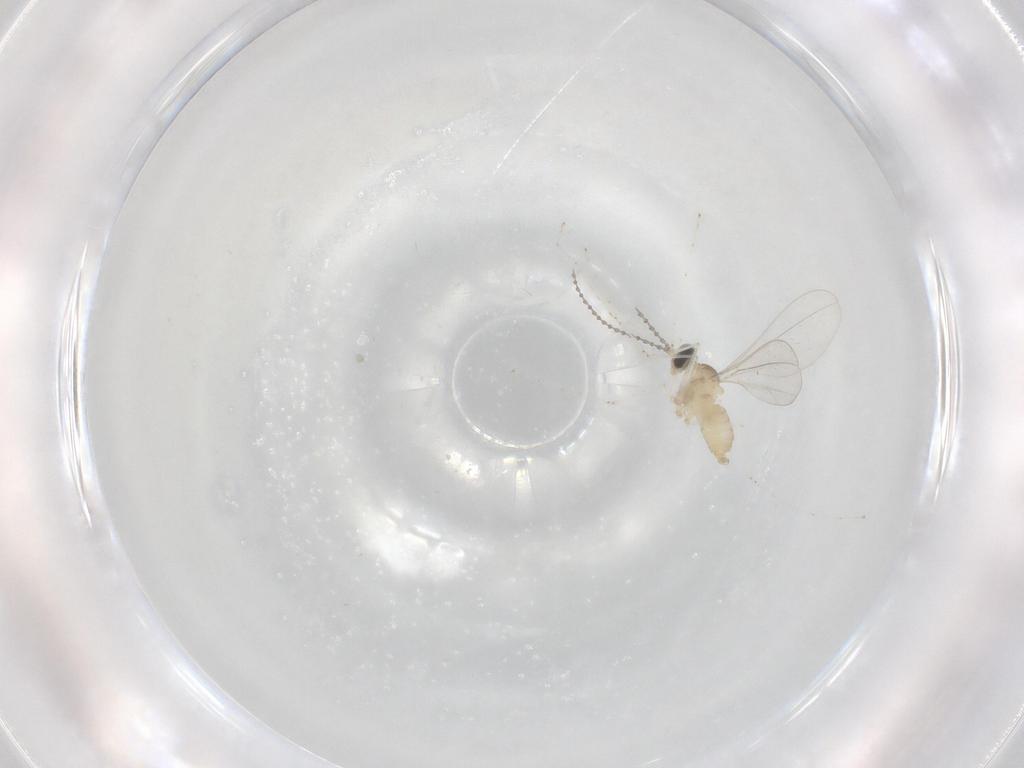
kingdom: Animalia
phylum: Arthropoda
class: Insecta
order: Diptera
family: Cecidomyiidae
